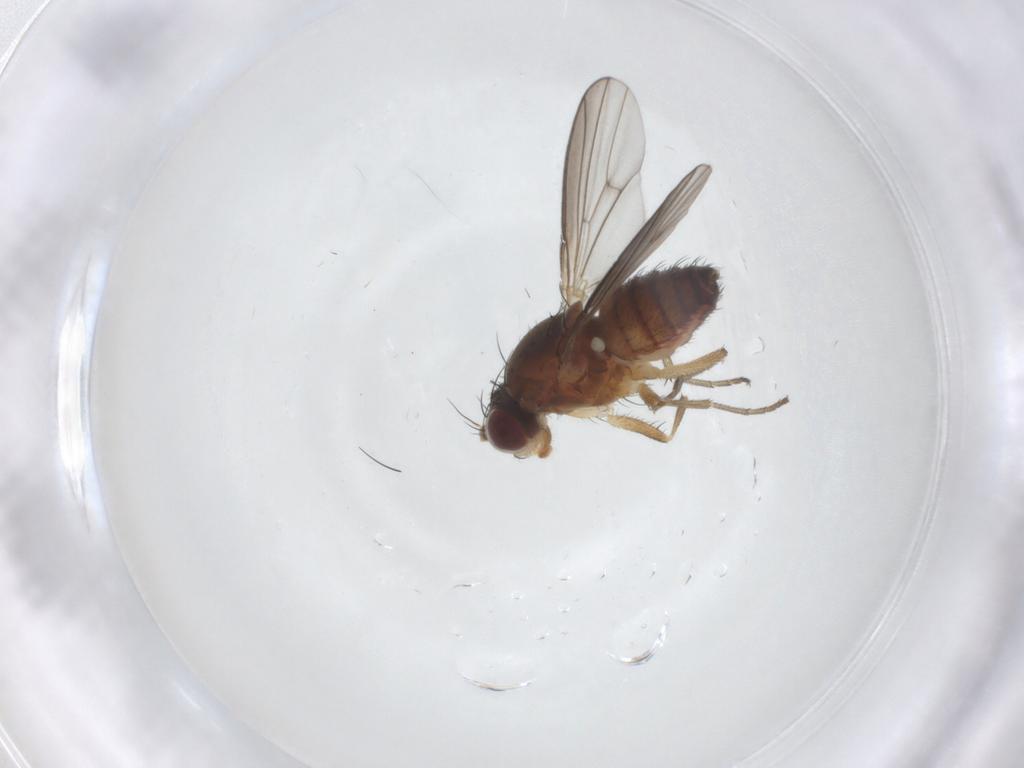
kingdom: Animalia
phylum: Arthropoda
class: Insecta
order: Diptera
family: Heleomyzidae
